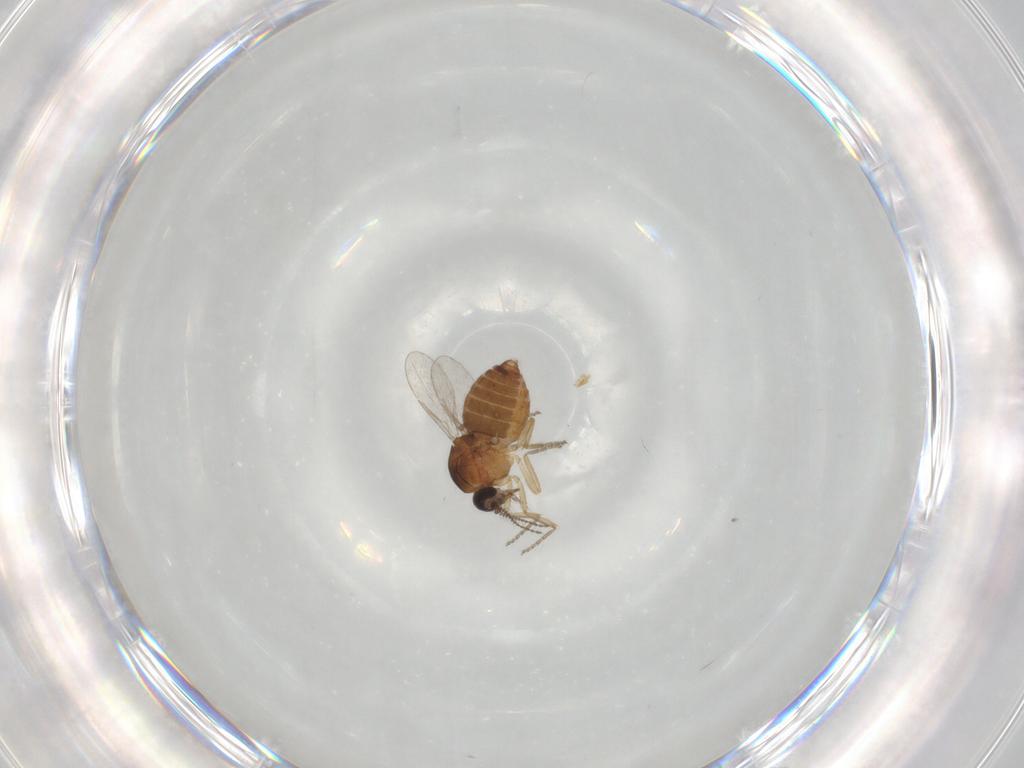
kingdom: Animalia
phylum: Arthropoda
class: Insecta
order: Diptera
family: Ceratopogonidae
